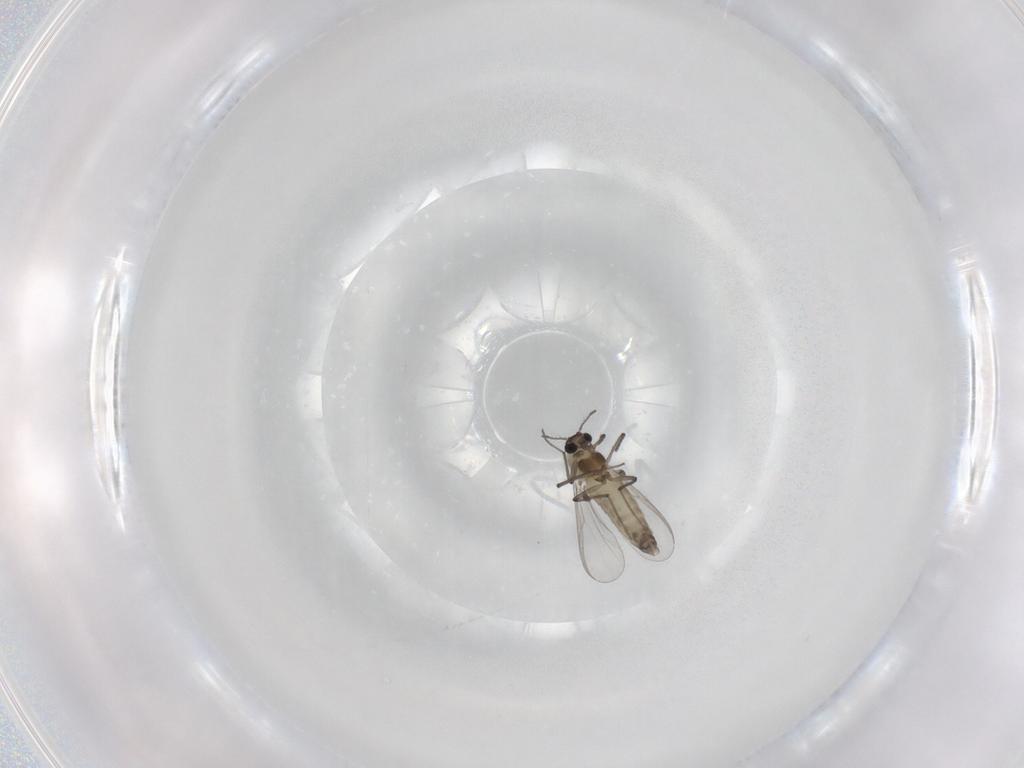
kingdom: Animalia
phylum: Arthropoda
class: Insecta
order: Diptera
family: Chironomidae
